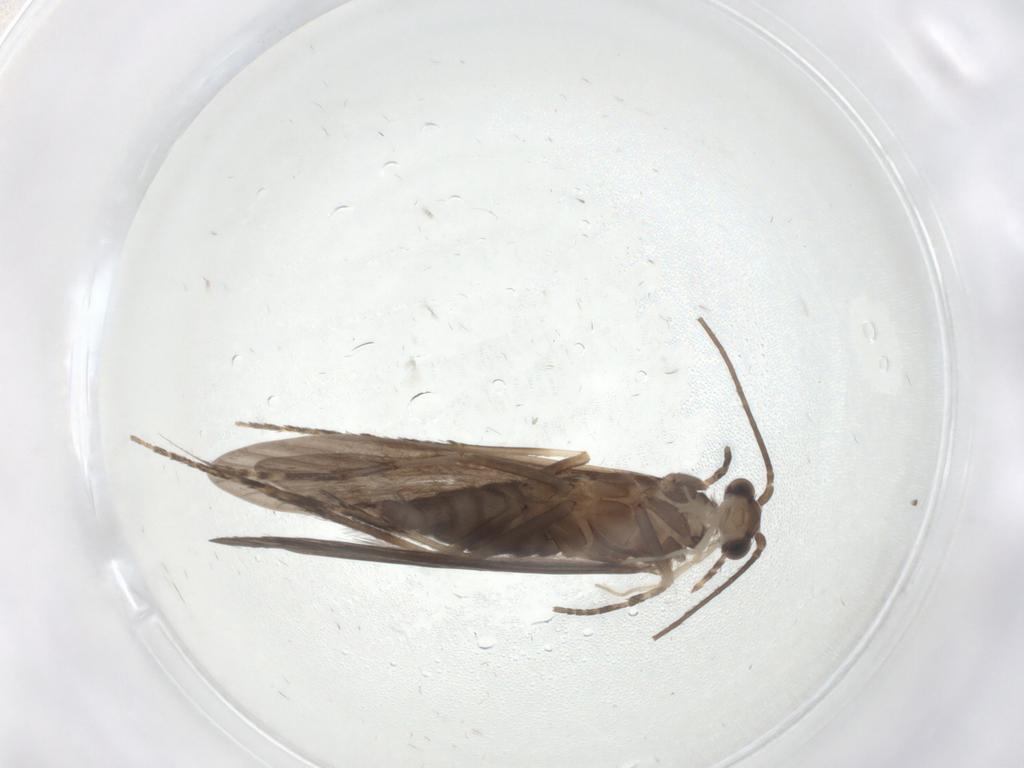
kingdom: Animalia
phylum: Arthropoda
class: Insecta
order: Trichoptera
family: Xiphocentronidae
